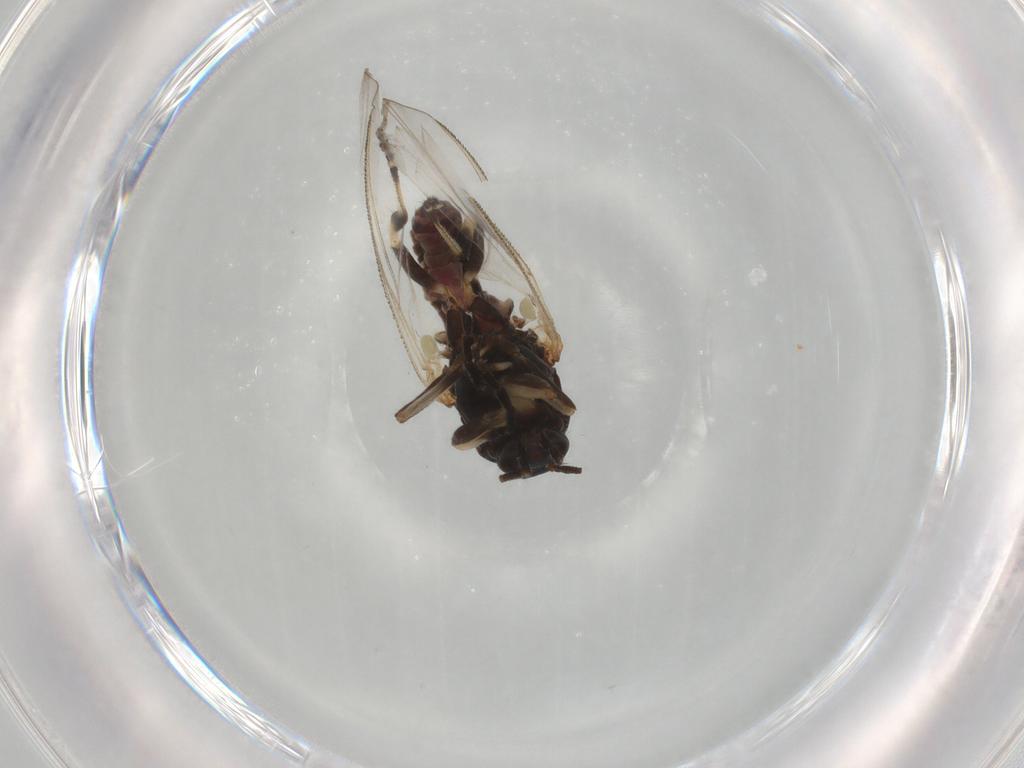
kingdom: Animalia
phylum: Arthropoda
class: Insecta
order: Diptera
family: Chironomidae
